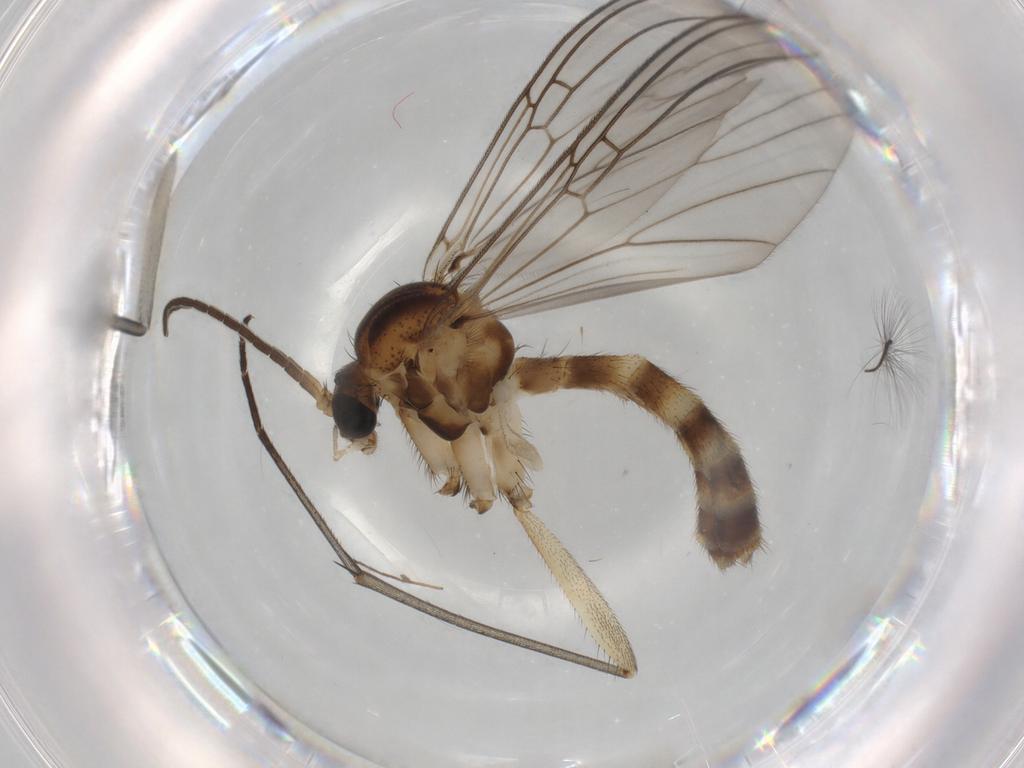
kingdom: Animalia
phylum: Arthropoda
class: Insecta
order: Diptera
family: Mycetophilidae
